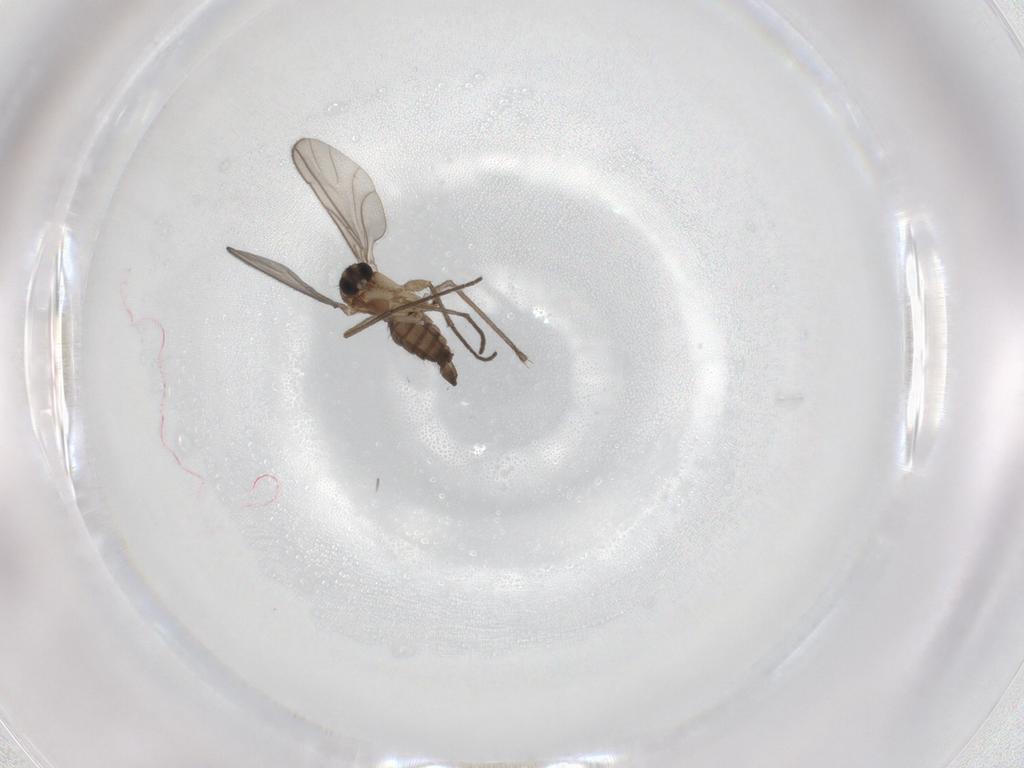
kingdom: Animalia
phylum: Arthropoda
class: Insecta
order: Diptera
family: Sciaridae
